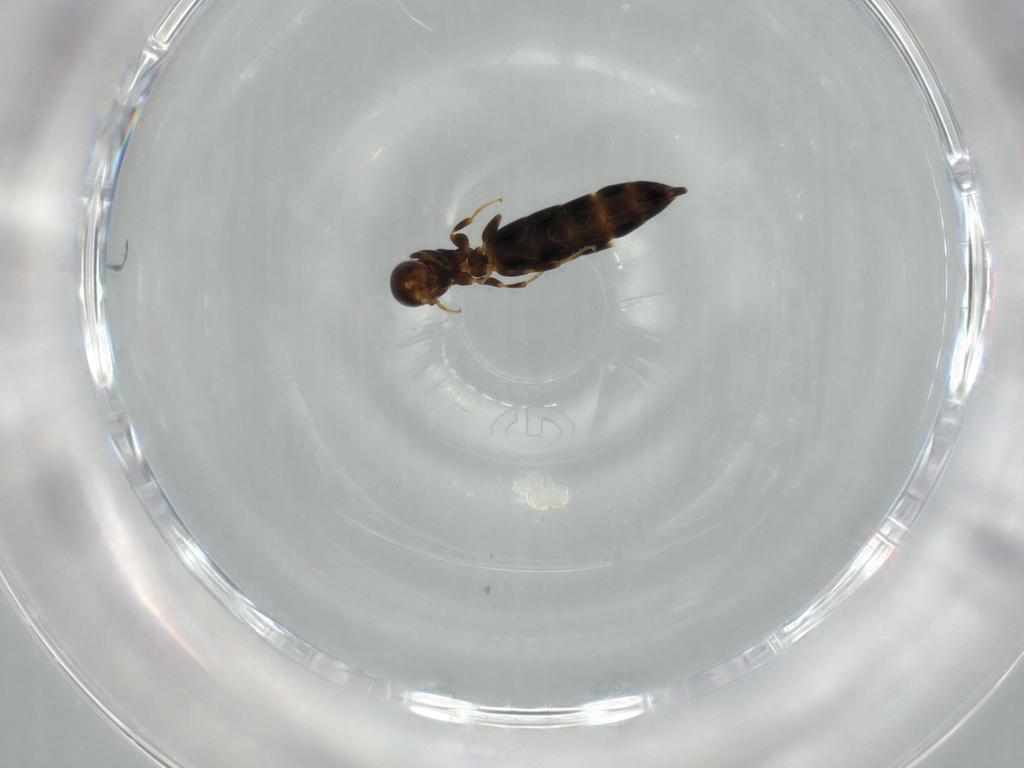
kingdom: Animalia
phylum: Arthropoda
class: Insecta
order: Hymenoptera
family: Bethylidae
